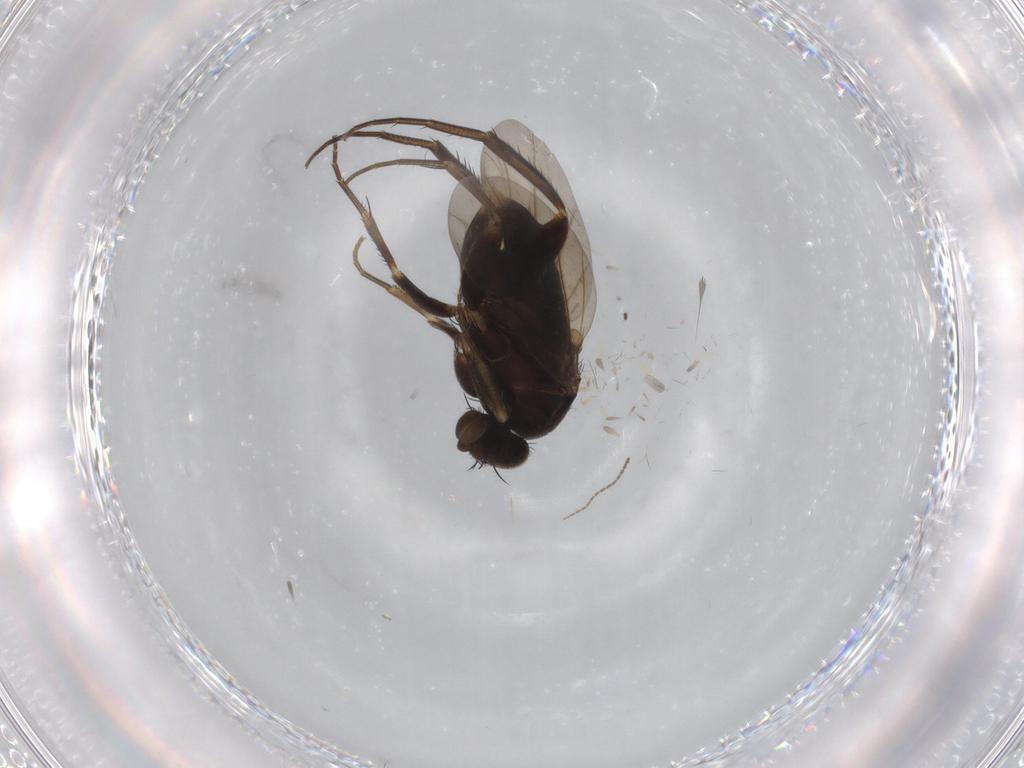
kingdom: Animalia
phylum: Arthropoda
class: Insecta
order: Diptera
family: Phoridae
